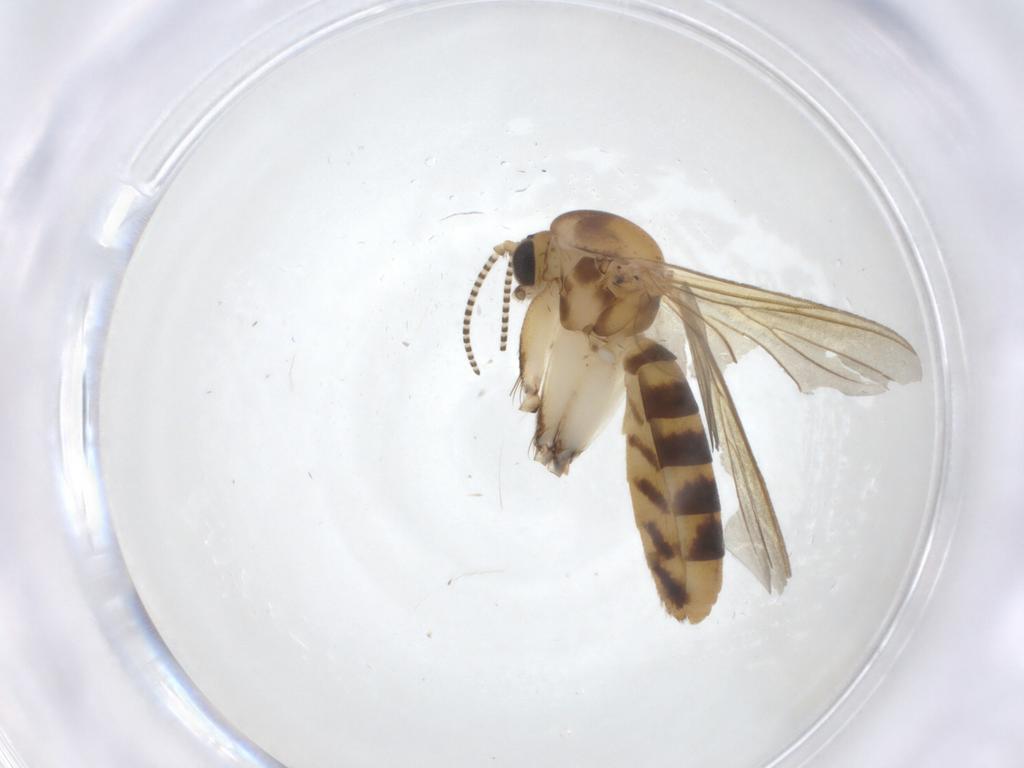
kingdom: Animalia
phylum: Arthropoda
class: Insecta
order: Diptera
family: Mycetophilidae
